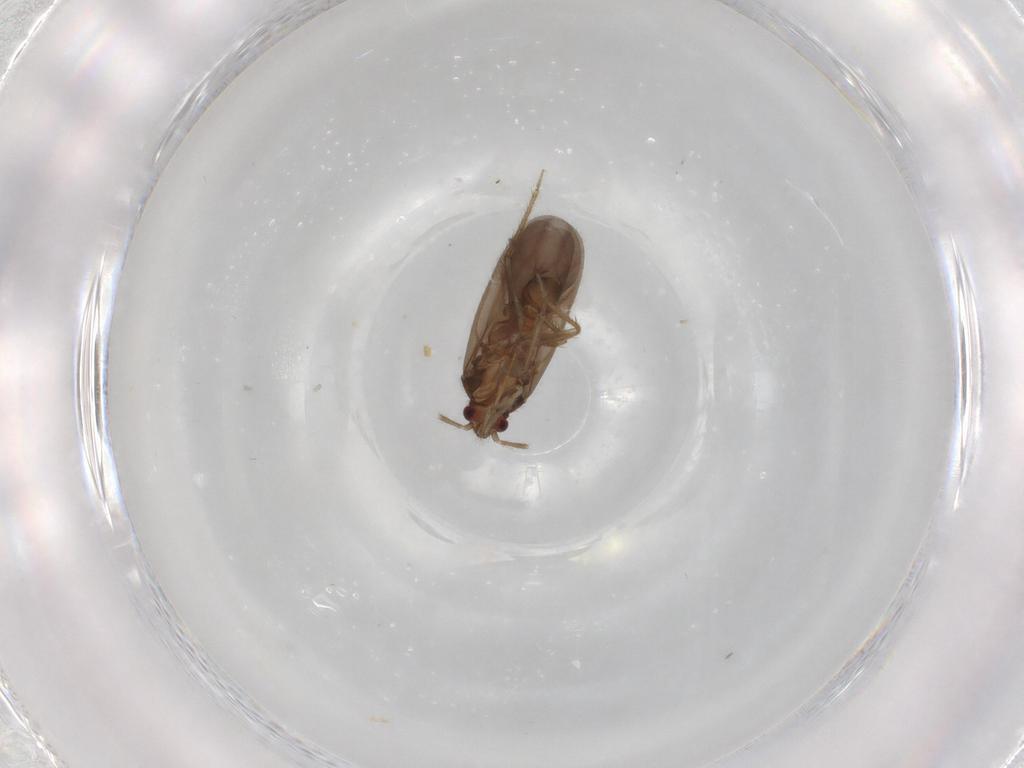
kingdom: Animalia
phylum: Arthropoda
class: Insecta
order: Hemiptera
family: Ceratocombidae
